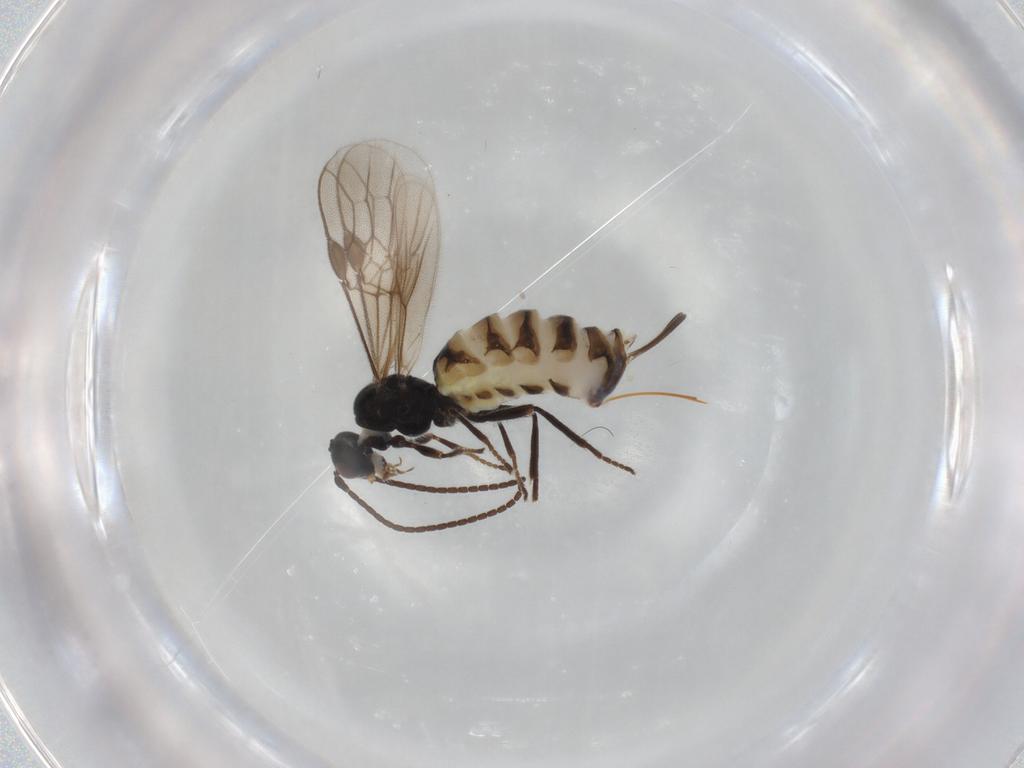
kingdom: Animalia
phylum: Arthropoda
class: Insecta
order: Hymenoptera
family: Braconidae
